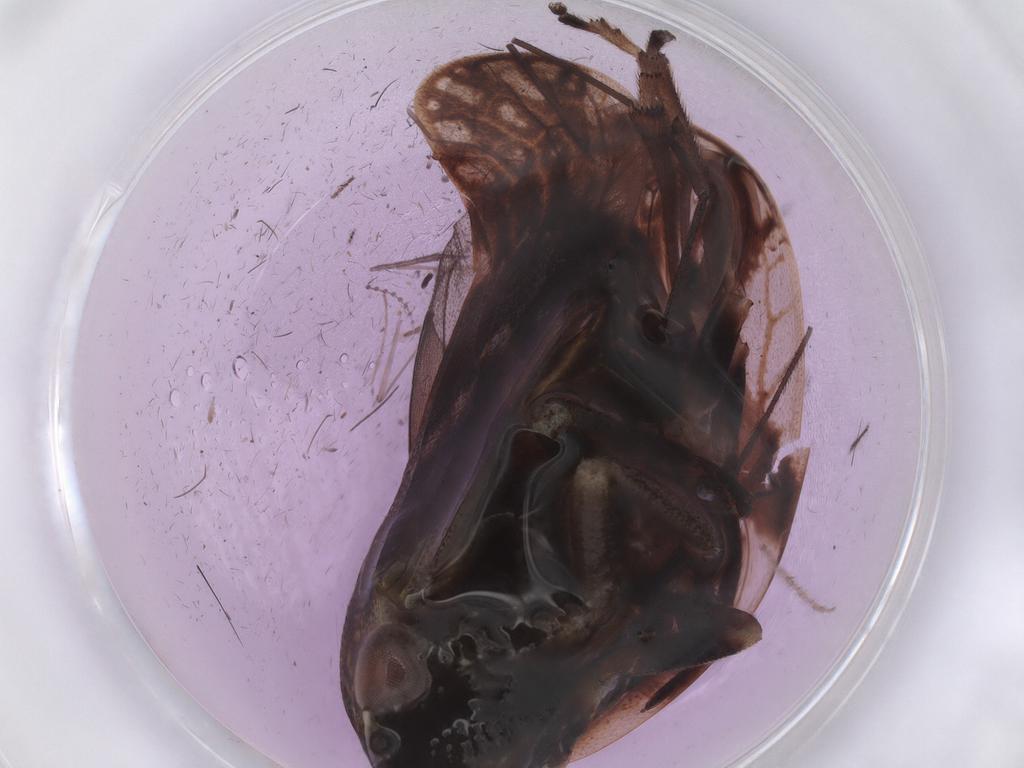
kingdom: Animalia
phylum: Arthropoda
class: Insecta
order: Hemiptera
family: Aphrophoridae
